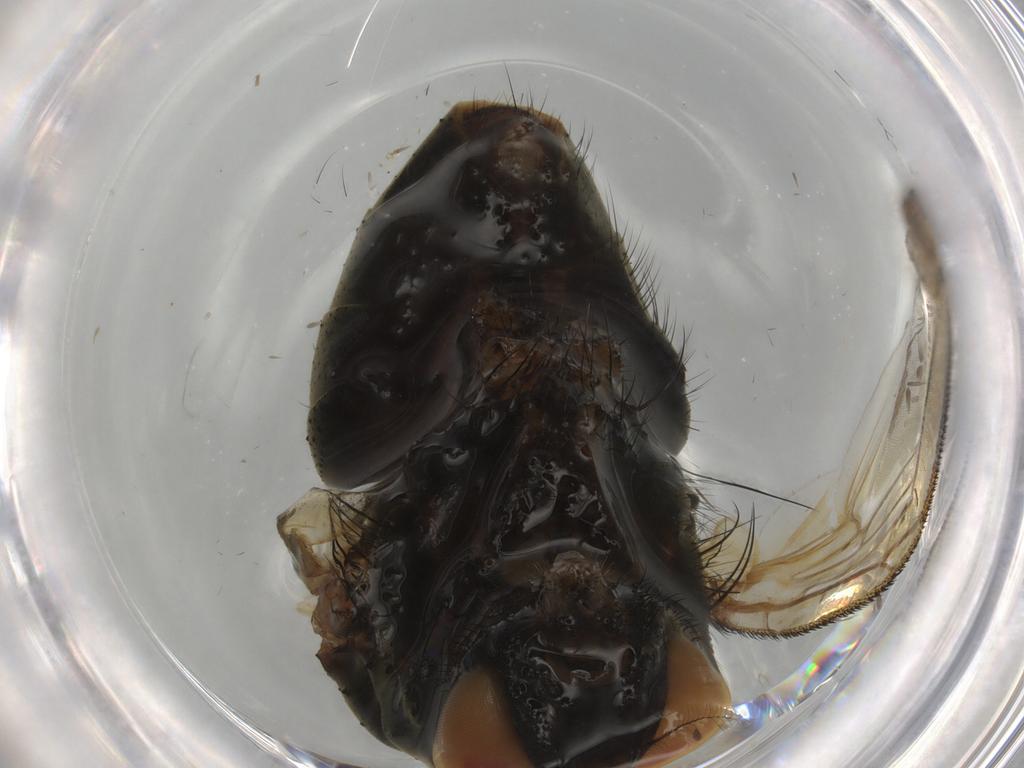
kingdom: Animalia
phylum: Arthropoda
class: Insecta
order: Diptera
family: Muscidae
